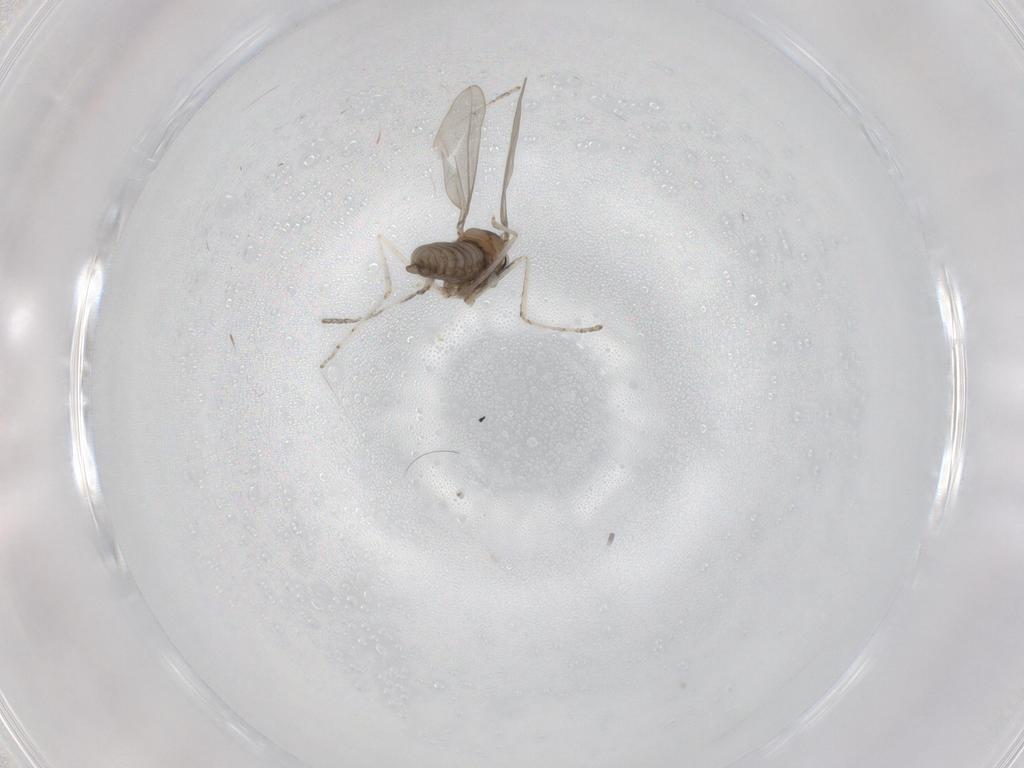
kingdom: Animalia
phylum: Arthropoda
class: Insecta
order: Diptera
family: Cecidomyiidae
